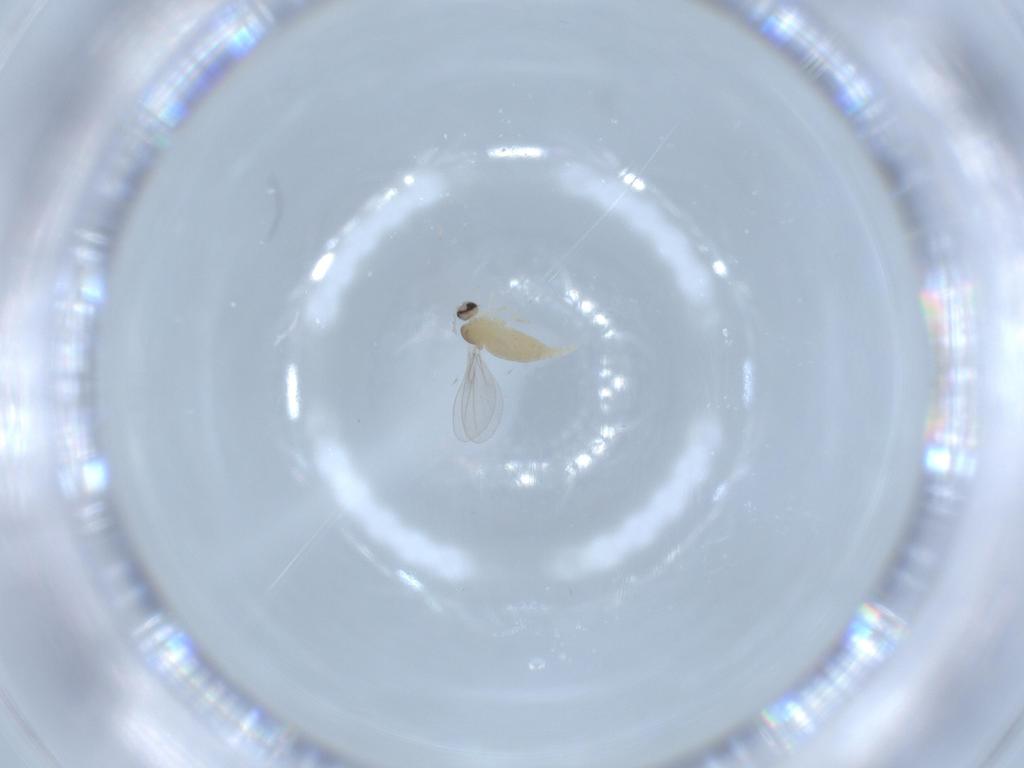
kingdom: Animalia
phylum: Arthropoda
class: Insecta
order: Diptera
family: Cecidomyiidae
